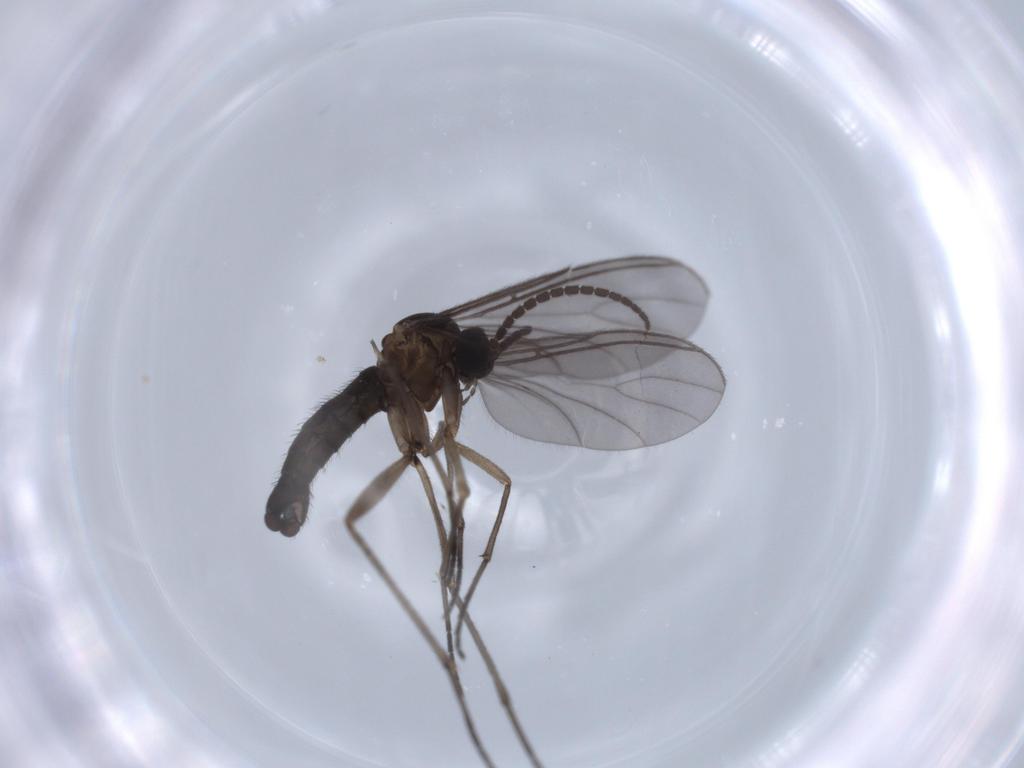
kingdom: Animalia
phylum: Arthropoda
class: Insecta
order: Diptera
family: Sciaridae
